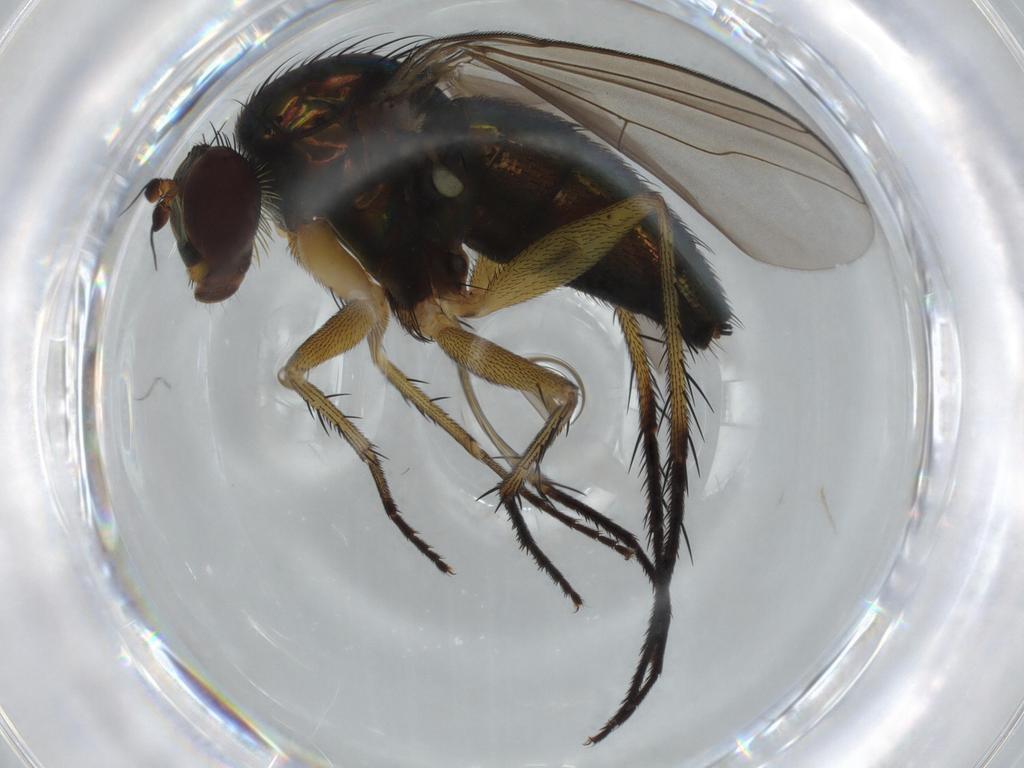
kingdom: Animalia
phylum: Arthropoda
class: Insecta
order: Diptera
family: Dolichopodidae
